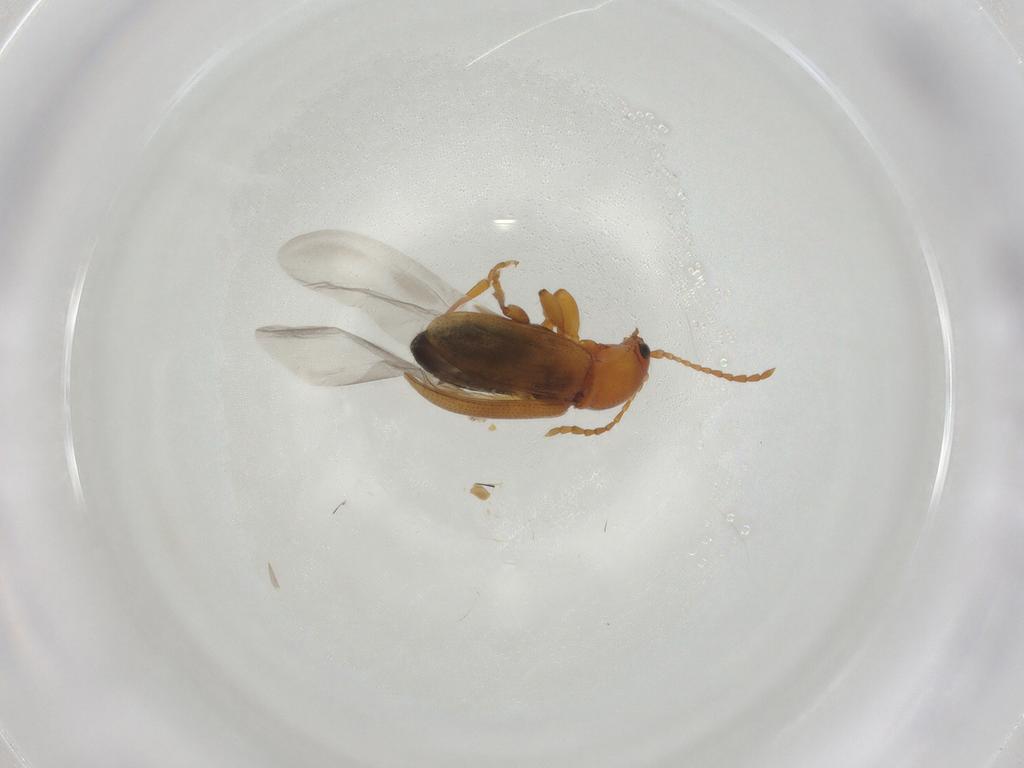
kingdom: Animalia
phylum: Arthropoda
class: Insecta
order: Coleoptera
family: Chrysomelidae
